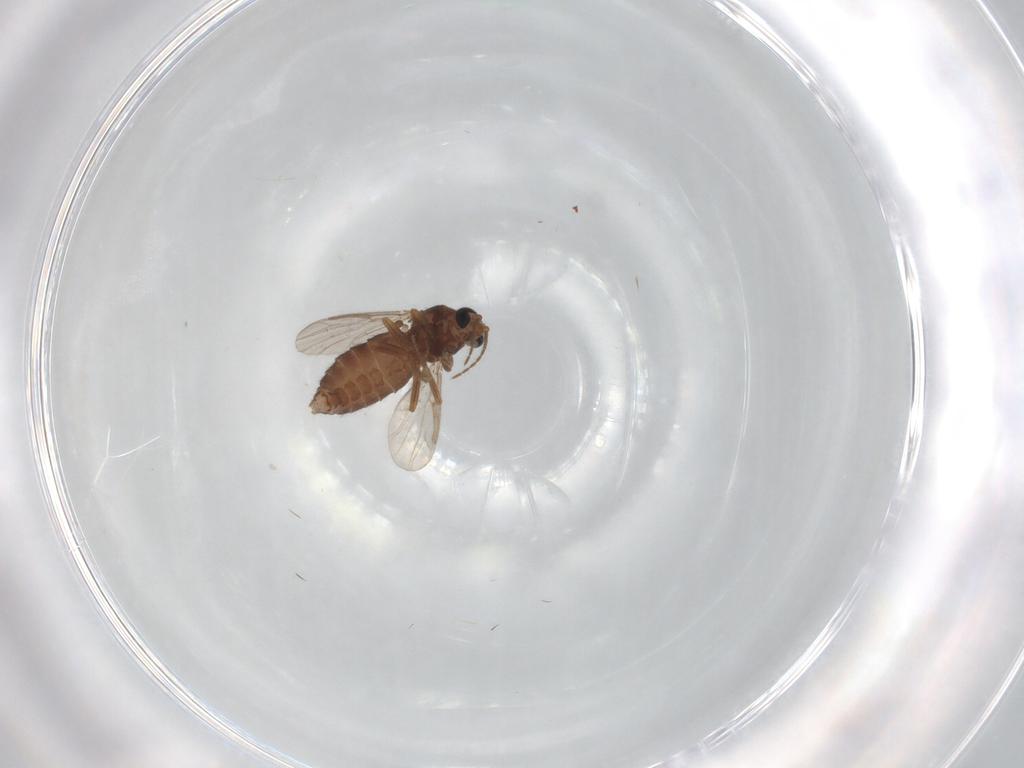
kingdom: Animalia
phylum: Arthropoda
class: Insecta
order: Diptera
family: Ceratopogonidae
